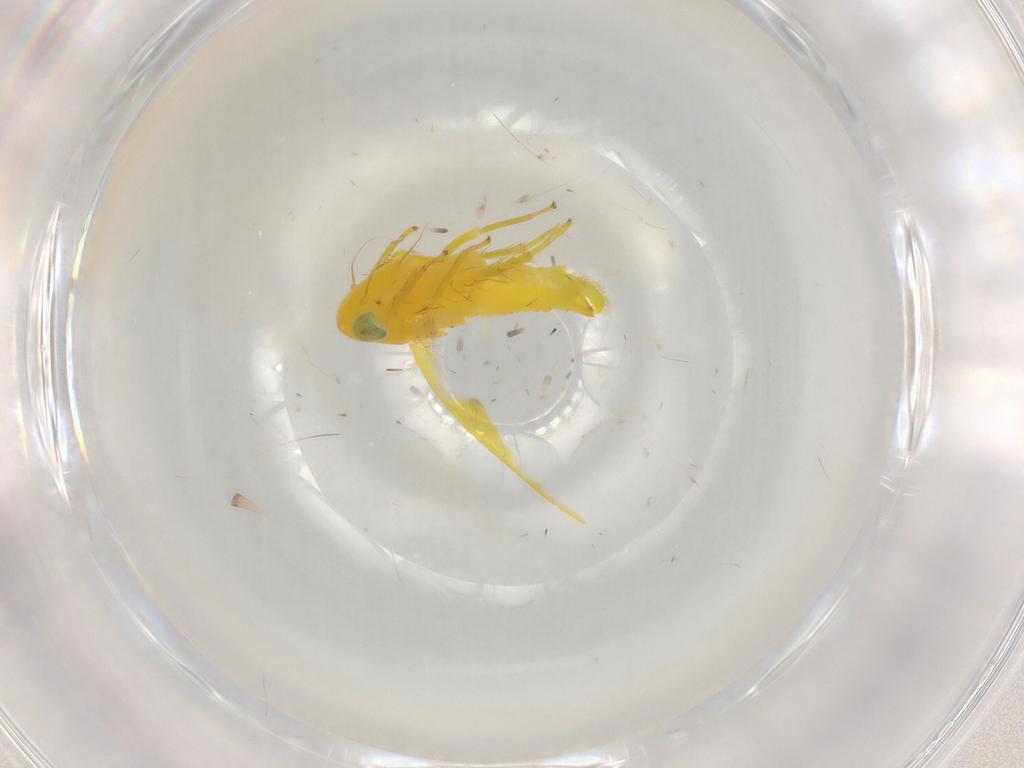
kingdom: Animalia
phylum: Arthropoda
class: Insecta
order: Hemiptera
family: Cicadellidae
